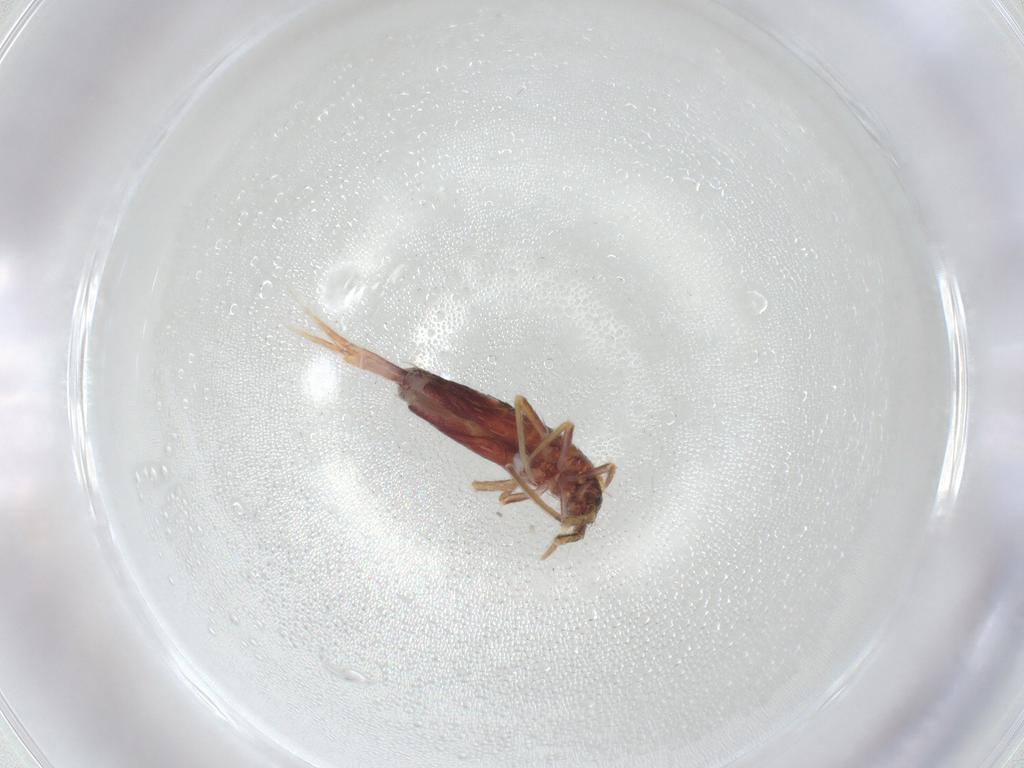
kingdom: Animalia
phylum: Arthropoda
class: Collembola
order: Entomobryomorpha
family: Entomobryidae
